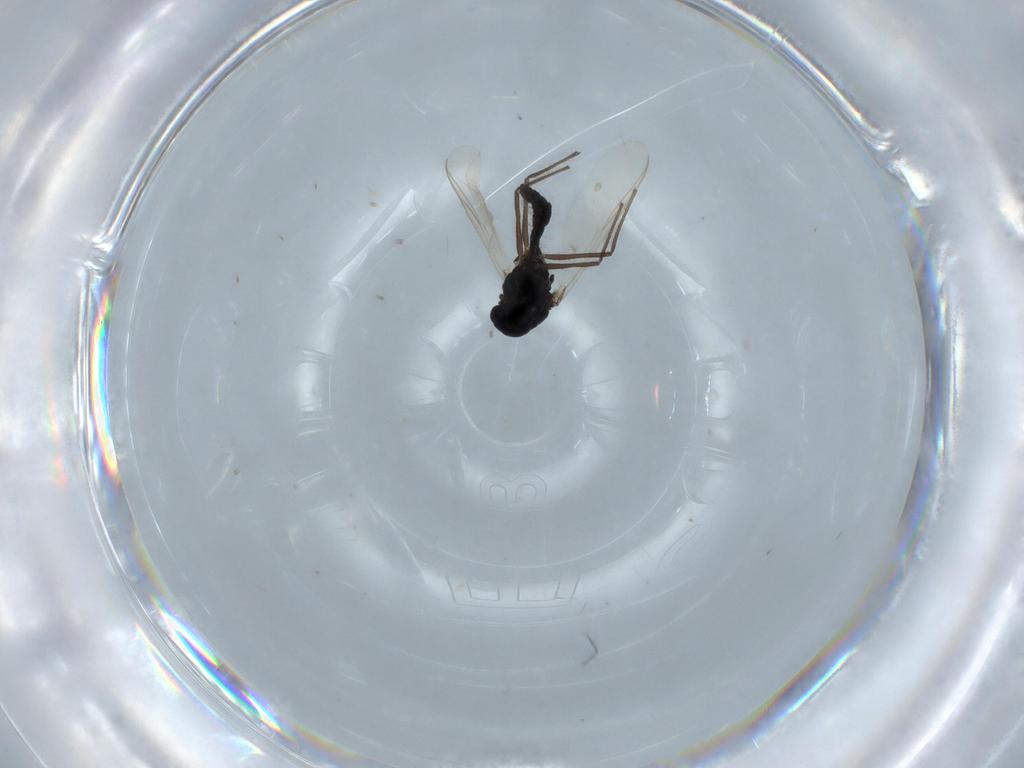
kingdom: Animalia
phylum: Arthropoda
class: Insecta
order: Diptera
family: Chironomidae
